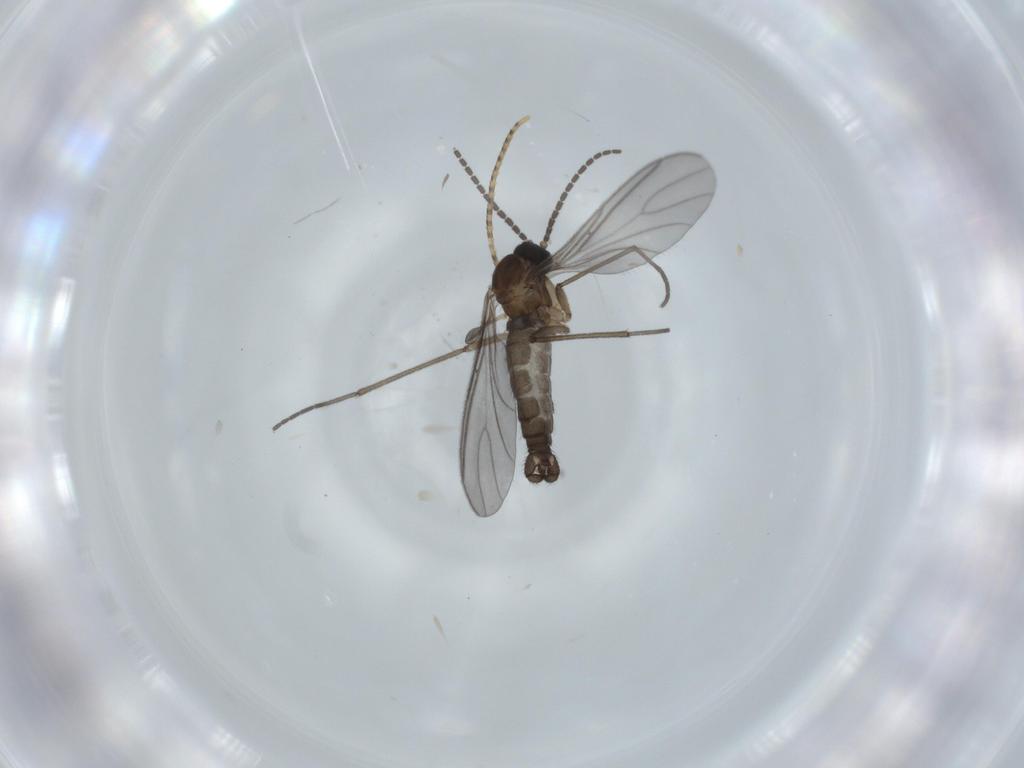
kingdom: Animalia
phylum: Arthropoda
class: Insecta
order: Diptera
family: Sciaridae
